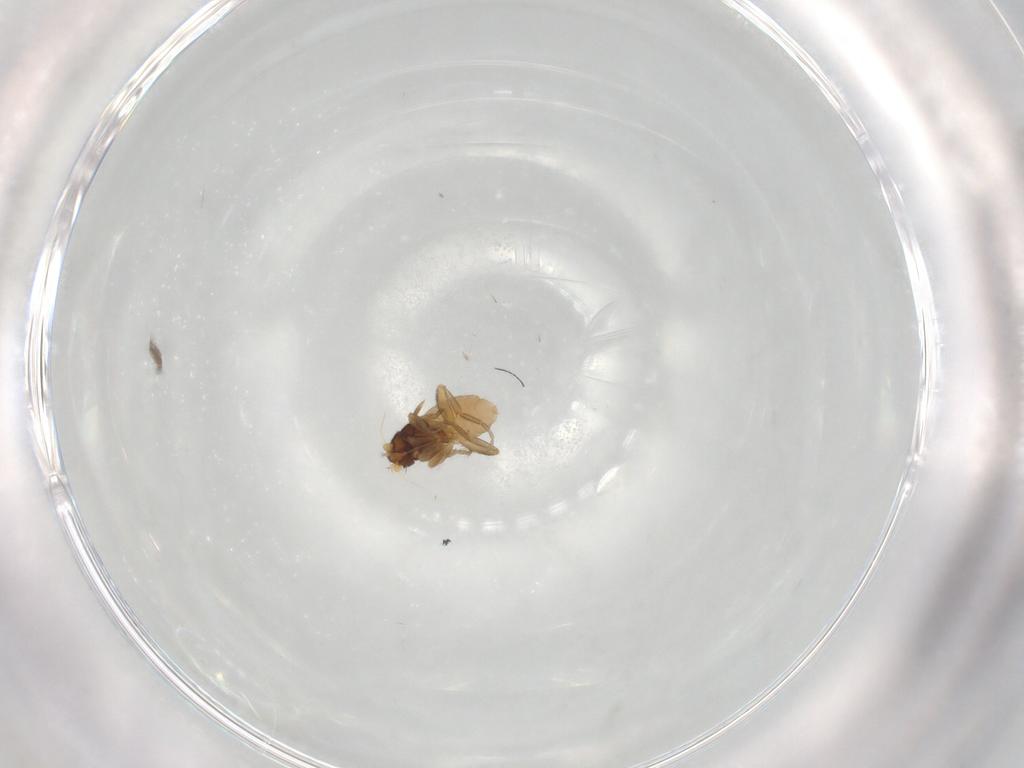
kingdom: Animalia
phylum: Arthropoda
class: Insecta
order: Diptera
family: Phoridae
